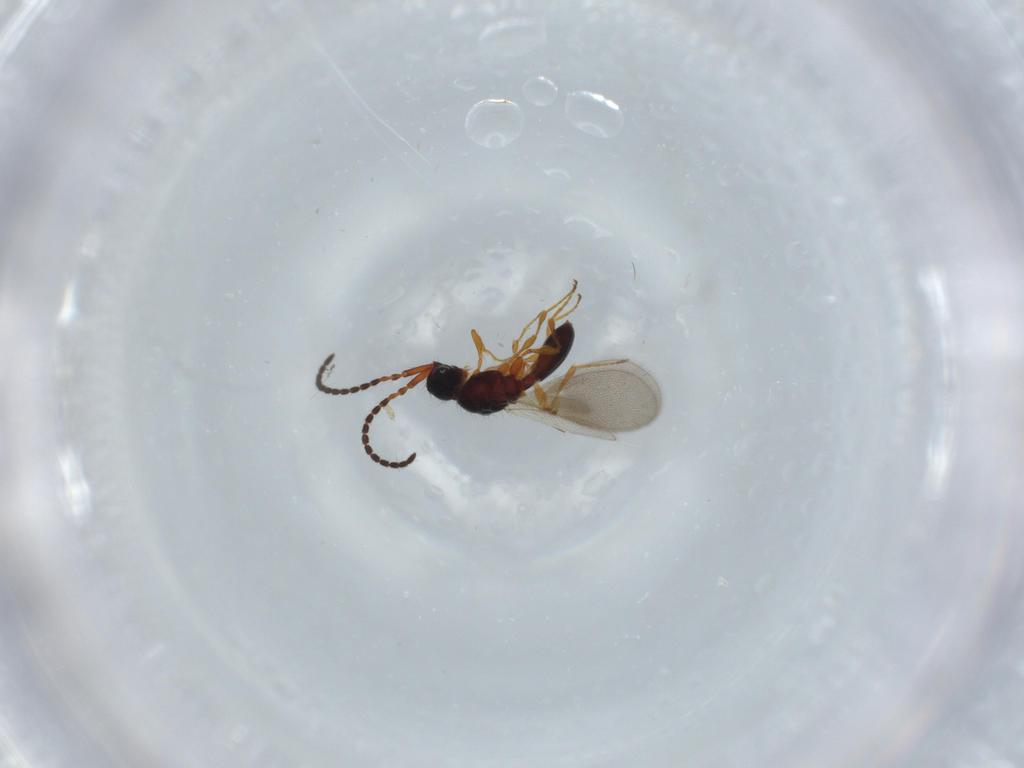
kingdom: Animalia
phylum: Arthropoda
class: Insecta
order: Hymenoptera
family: Diapriidae
